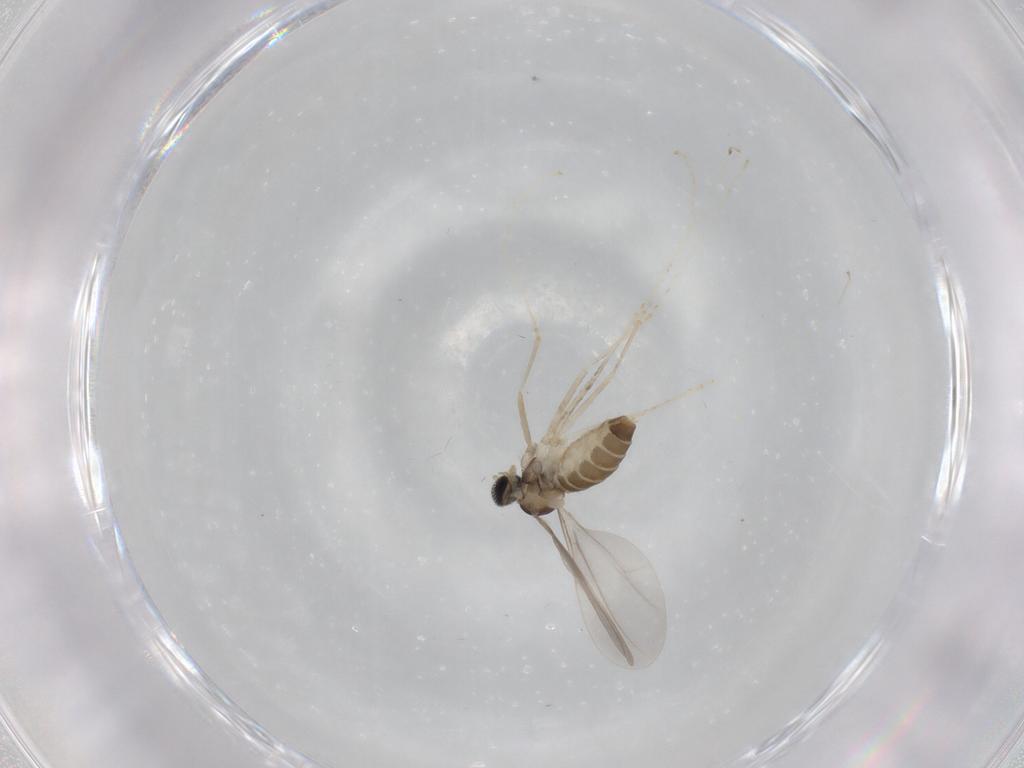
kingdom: Animalia
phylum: Arthropoda
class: Insecta
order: Diptera
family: Cecidomyiidae
